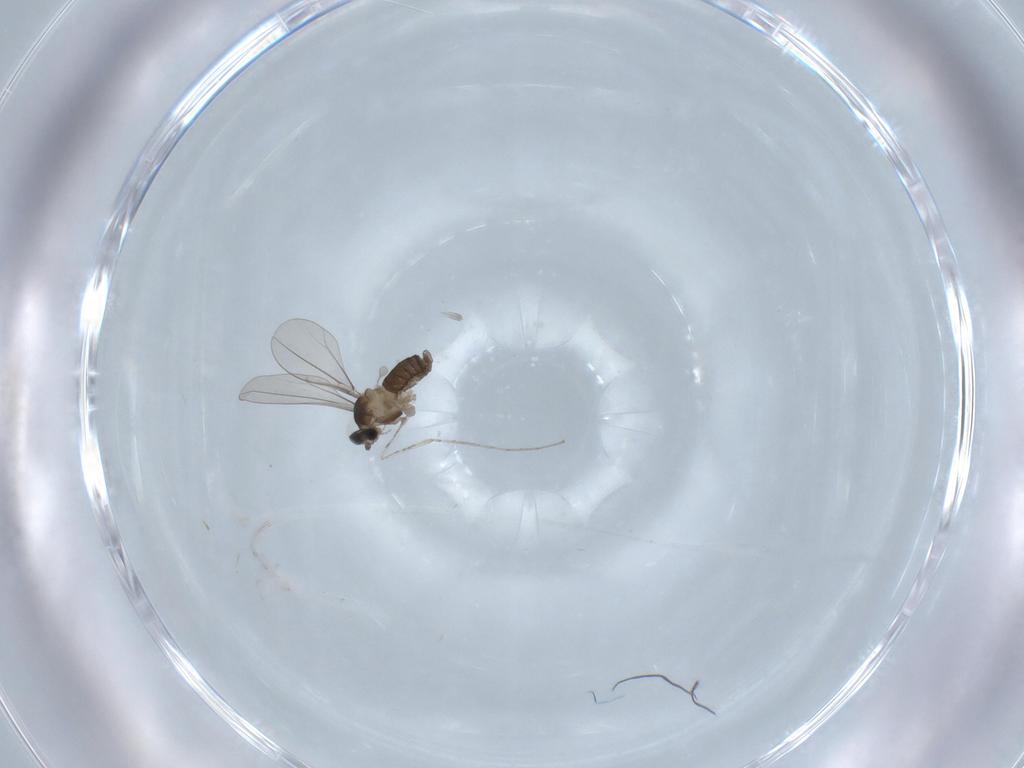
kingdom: Animalia
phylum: Arthropoda
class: Insecta
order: Diptera
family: Cecidomyiidae
